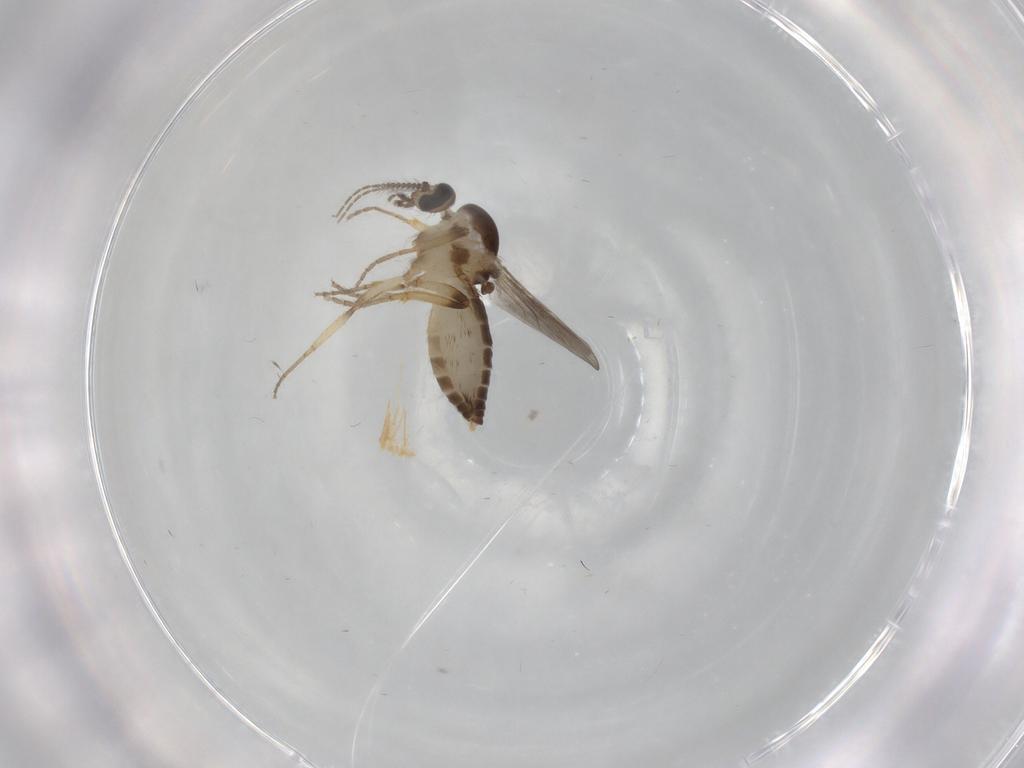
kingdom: Animalia
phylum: Arthropoda
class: Insecta
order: Diptera
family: Ceratopogonidae
